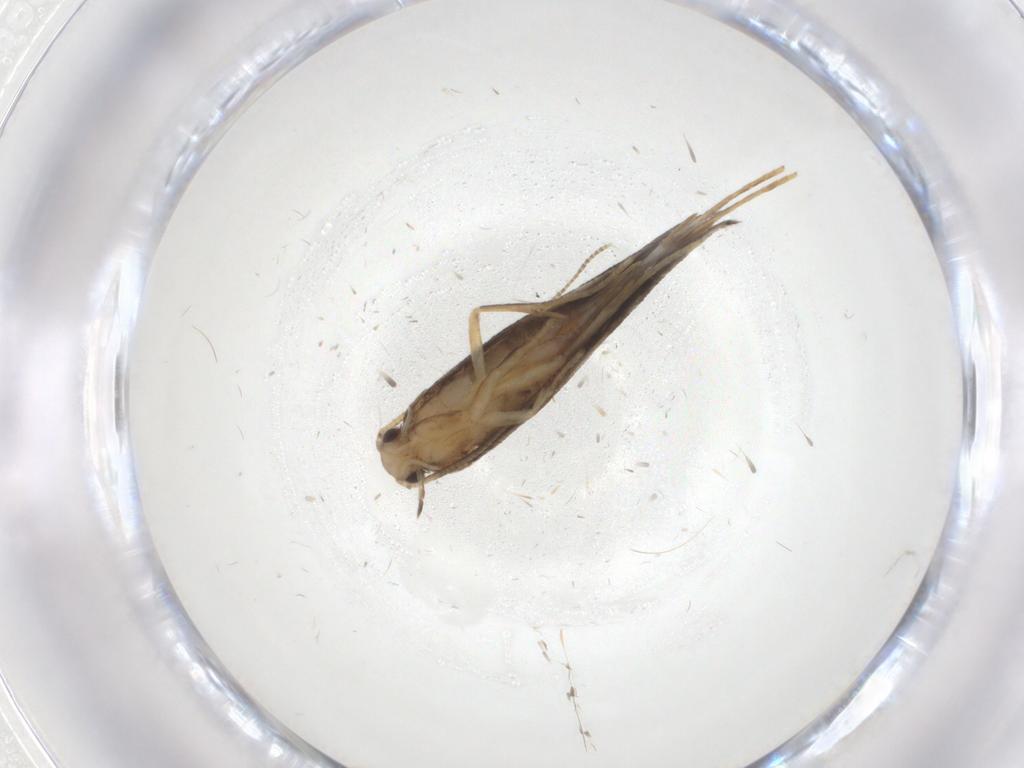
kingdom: Animalia
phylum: Arthropoda
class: Insecta
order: Lepidoptera
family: Tineidae
